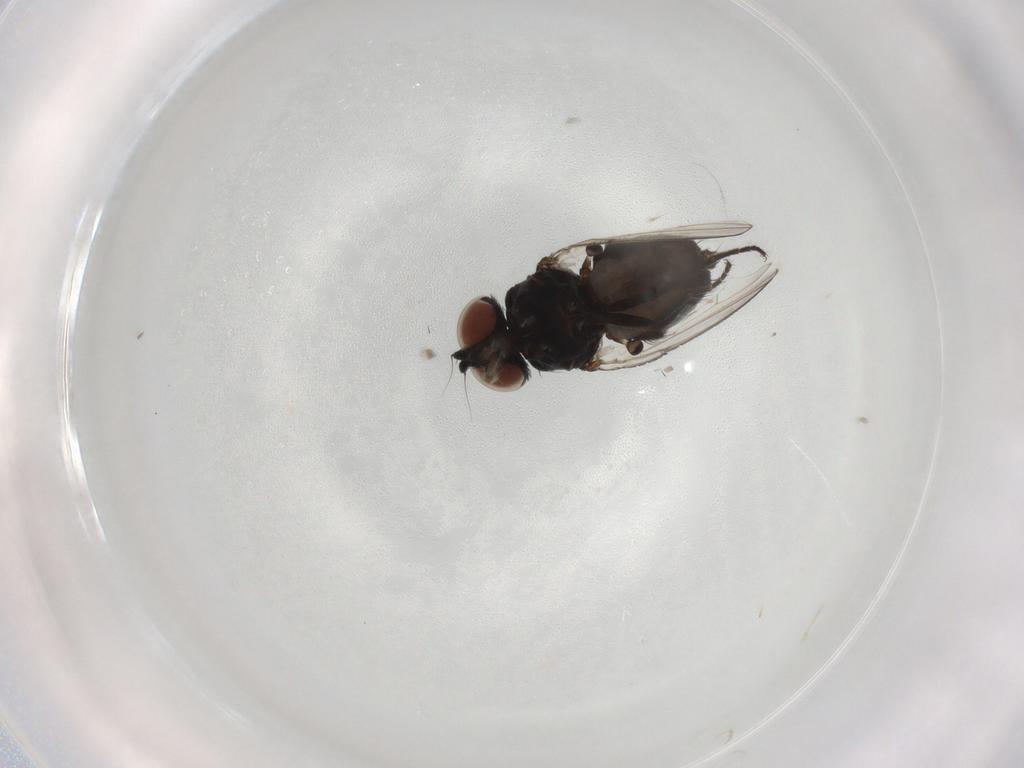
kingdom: Animalia
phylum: Arthropoda
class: Insecta
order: Diptera
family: Milichiidae
